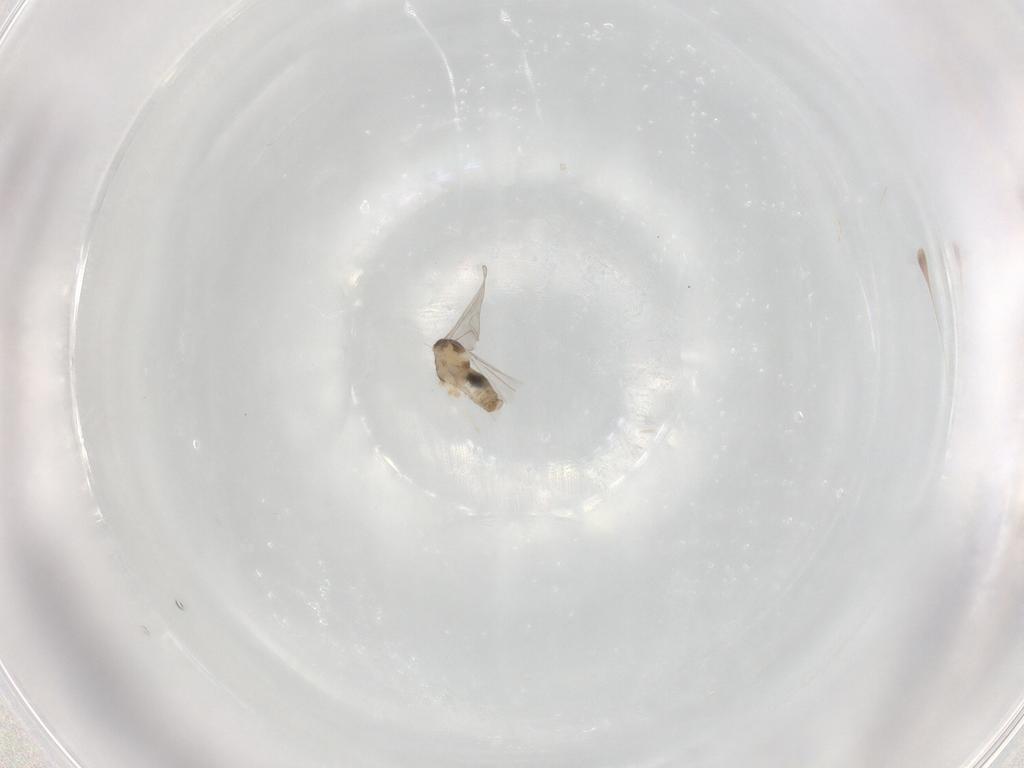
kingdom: Animalia
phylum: Arthropoda
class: Insecta
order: Diptera
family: Cecidomyiidae
